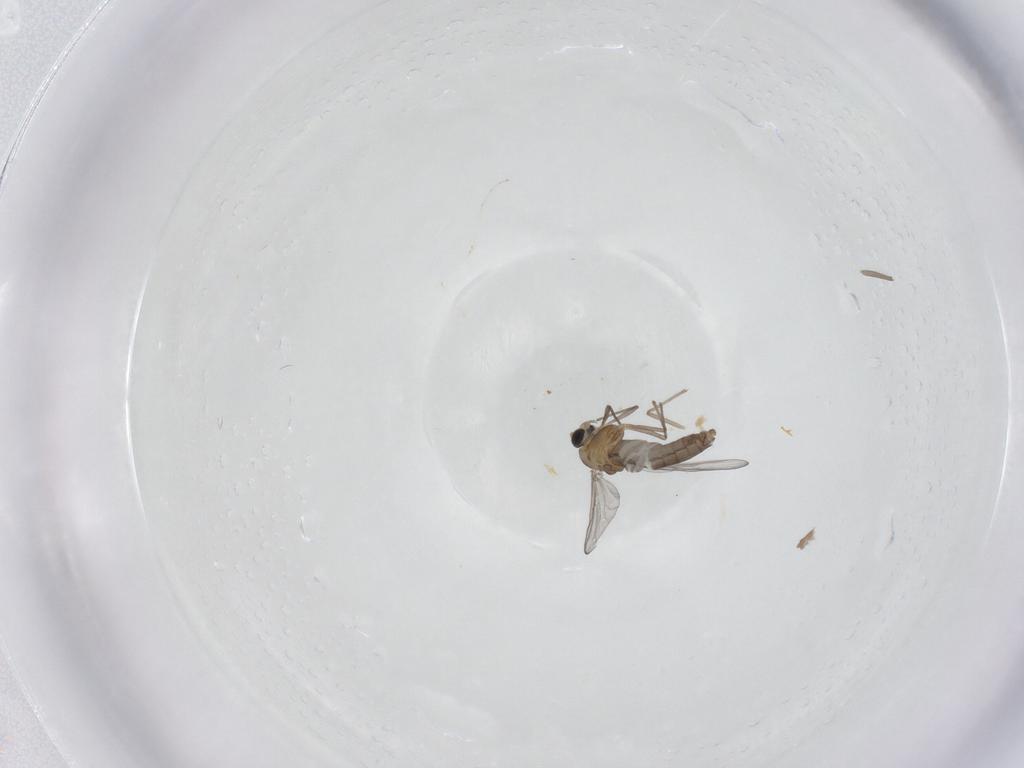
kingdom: Animalia
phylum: Arthropoda
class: Insecta
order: Diptera
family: Chironomidae
